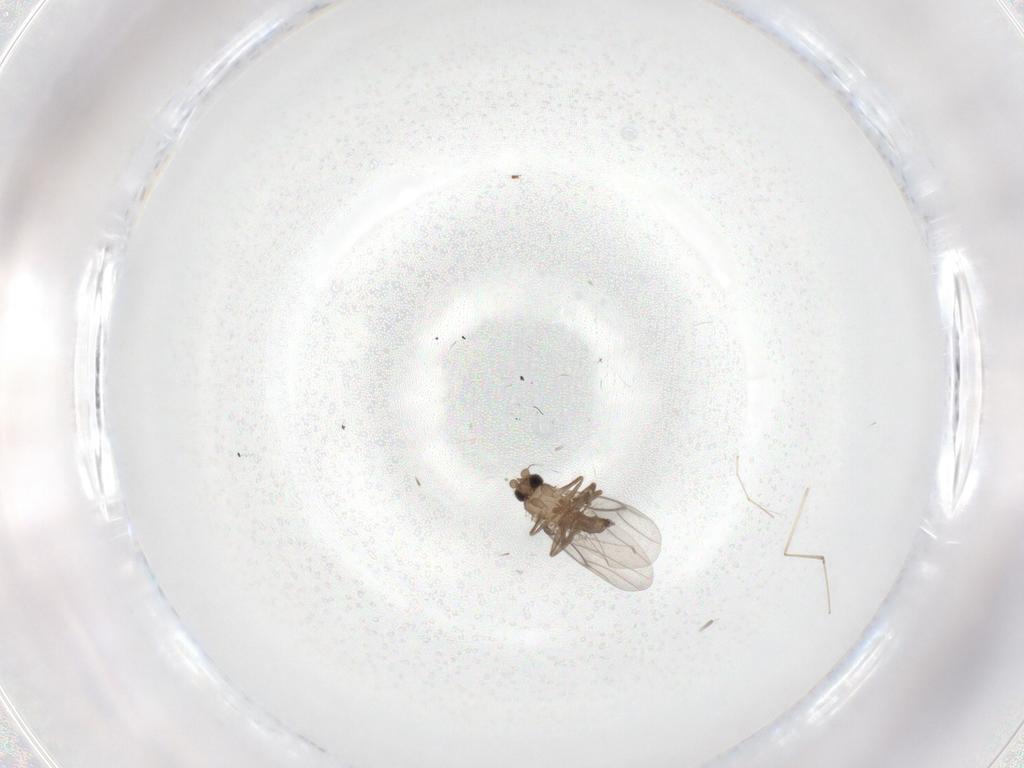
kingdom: Animalia
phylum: Arthropoda
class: Insecta
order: Diptera
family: Cecidomyiidae
